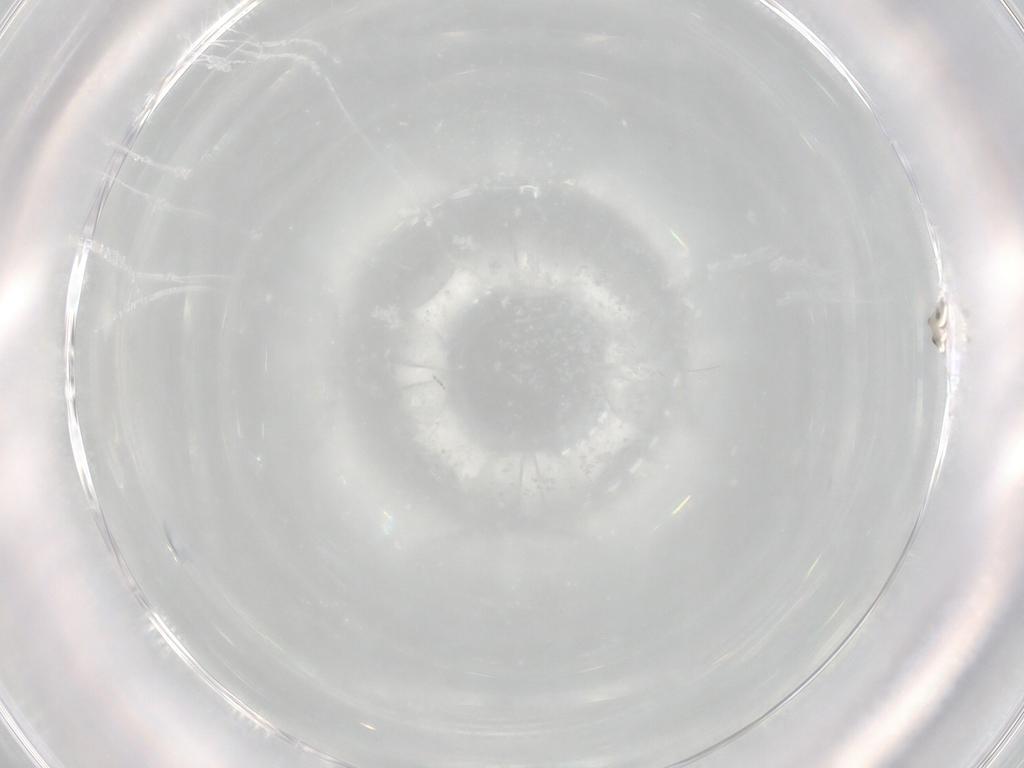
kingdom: Animalia
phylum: Arthropoda
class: Insecta
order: Diptera
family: Cecidomyiidae
